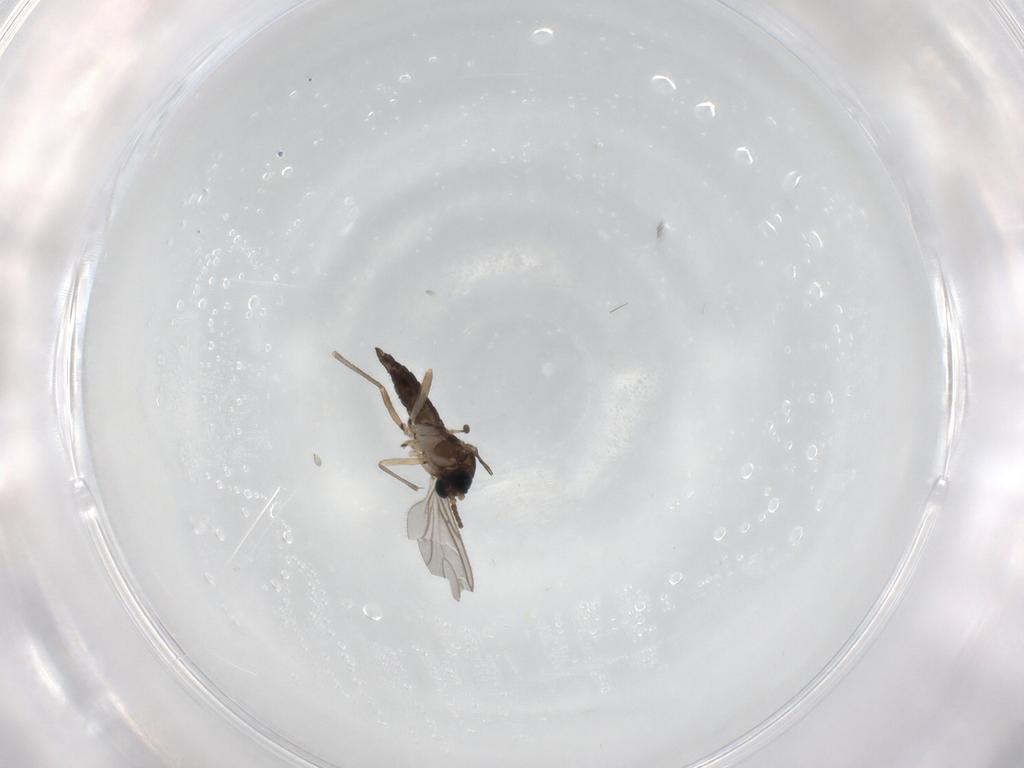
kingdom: Animalia
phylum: Arthropoda
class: Insecta
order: Diptera
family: Sciaridae
